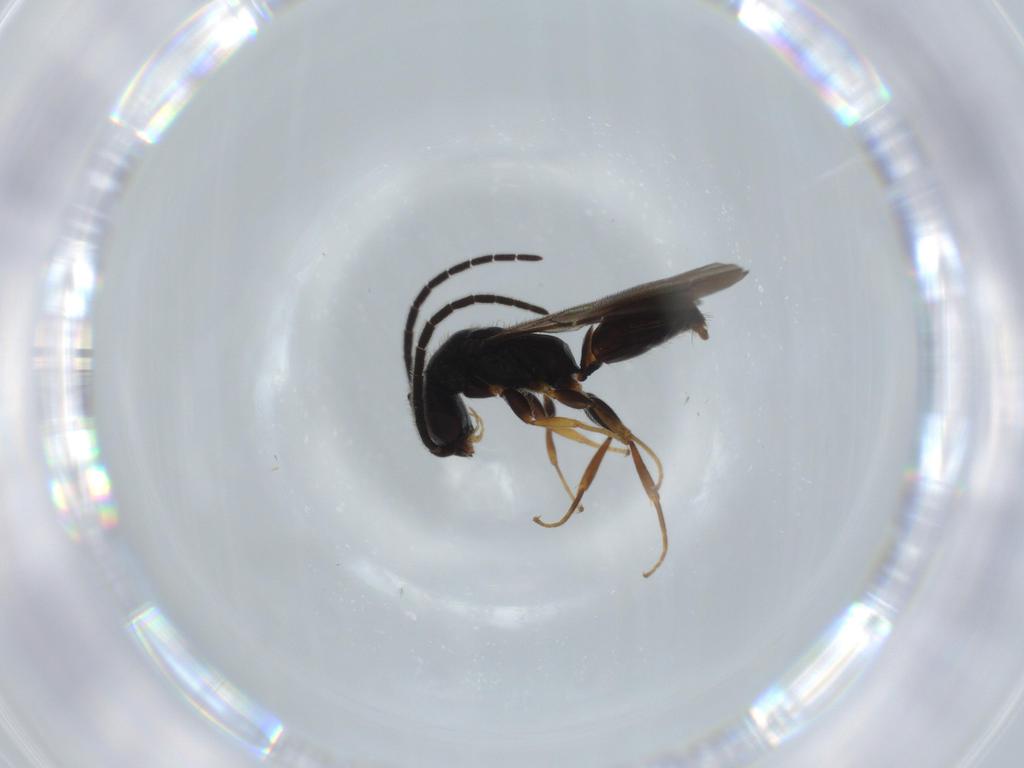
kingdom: Animalia
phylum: Arthropoda
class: Insecta
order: Hymenoptera
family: Bethylidae
